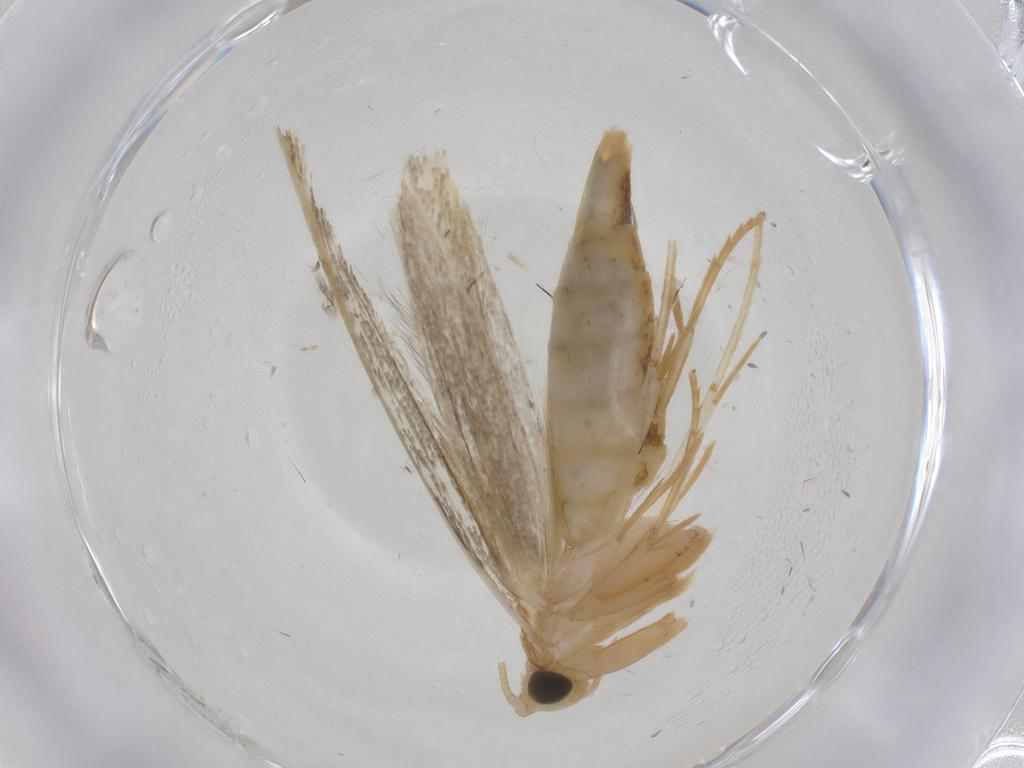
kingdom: Animalia
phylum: Arthropoda
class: Insecta
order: Lepidoptera
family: Tineidae
